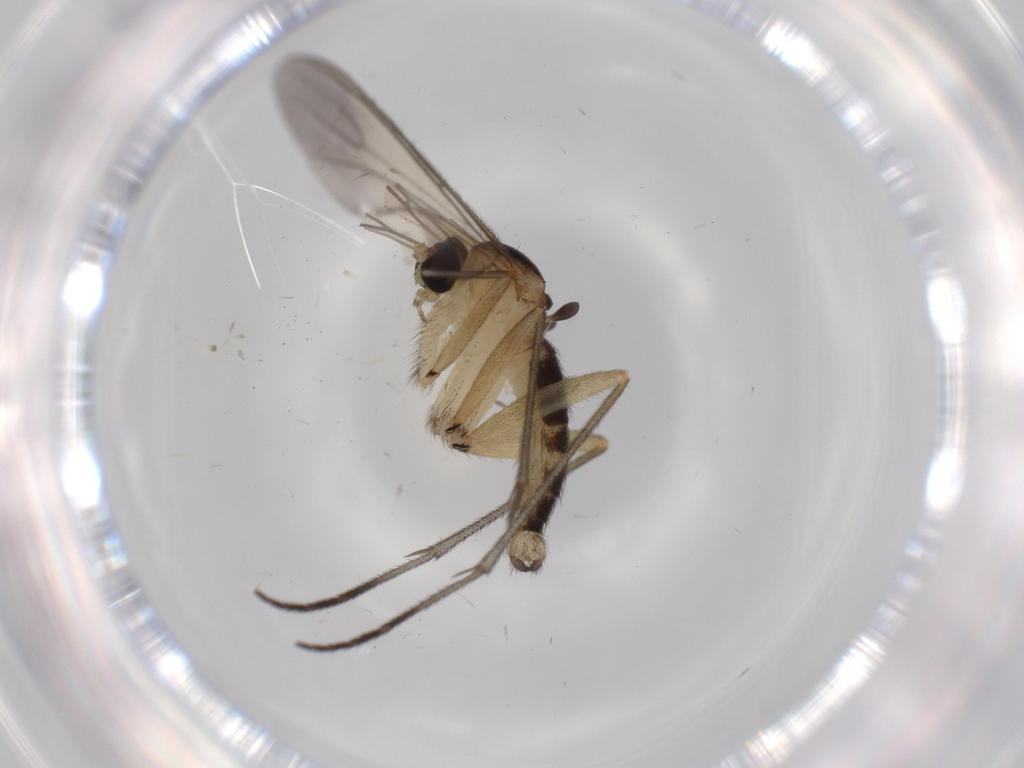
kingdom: Animalia
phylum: Arthropoda
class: Insecta
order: Diptera
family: Sciaridae
